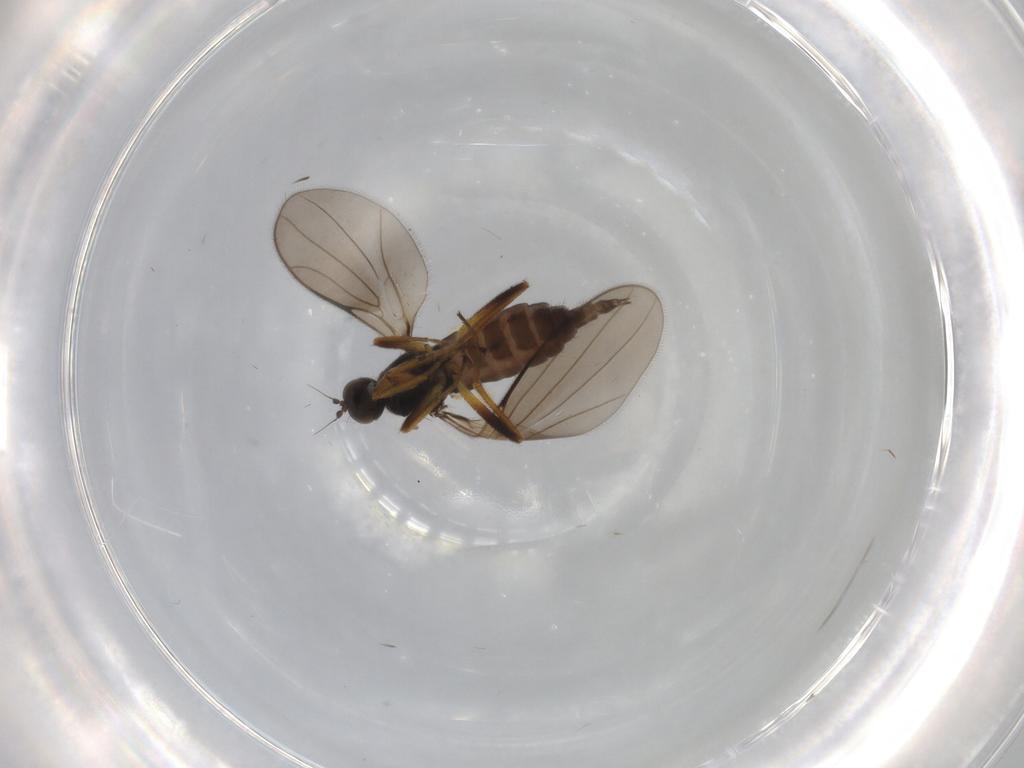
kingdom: Animalia
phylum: Arthropoda
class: Insecta
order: Diptera
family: Hybotidae
